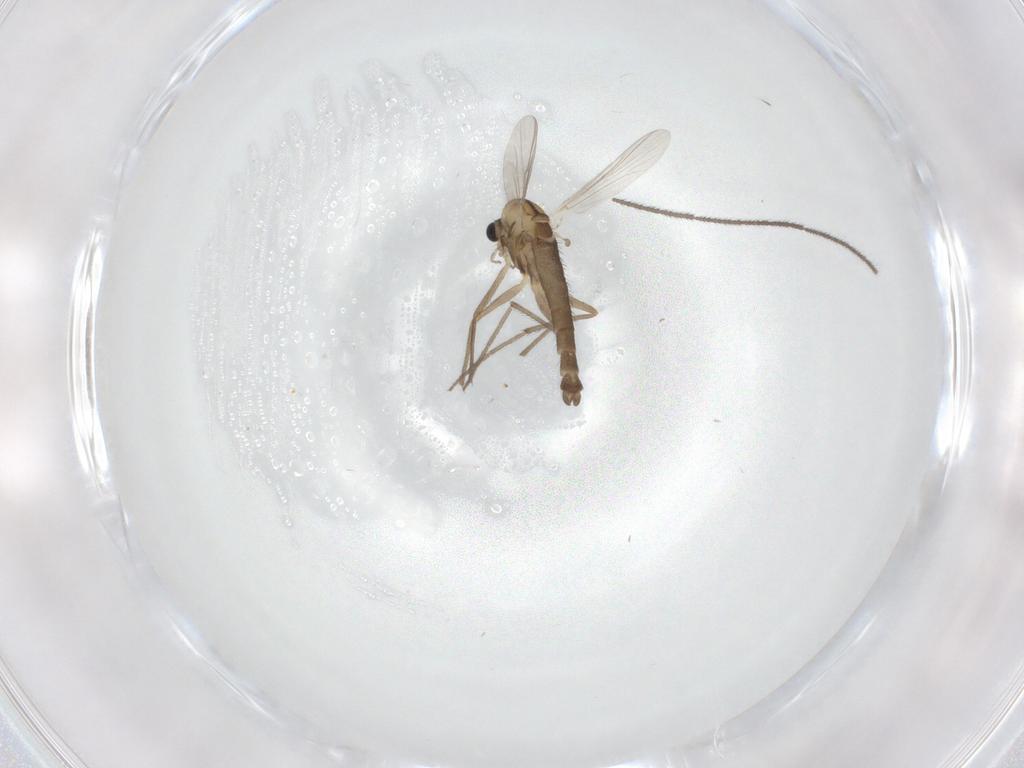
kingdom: Animalia
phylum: Arthropoda
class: Insecta
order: Diptera
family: Chironomidae
